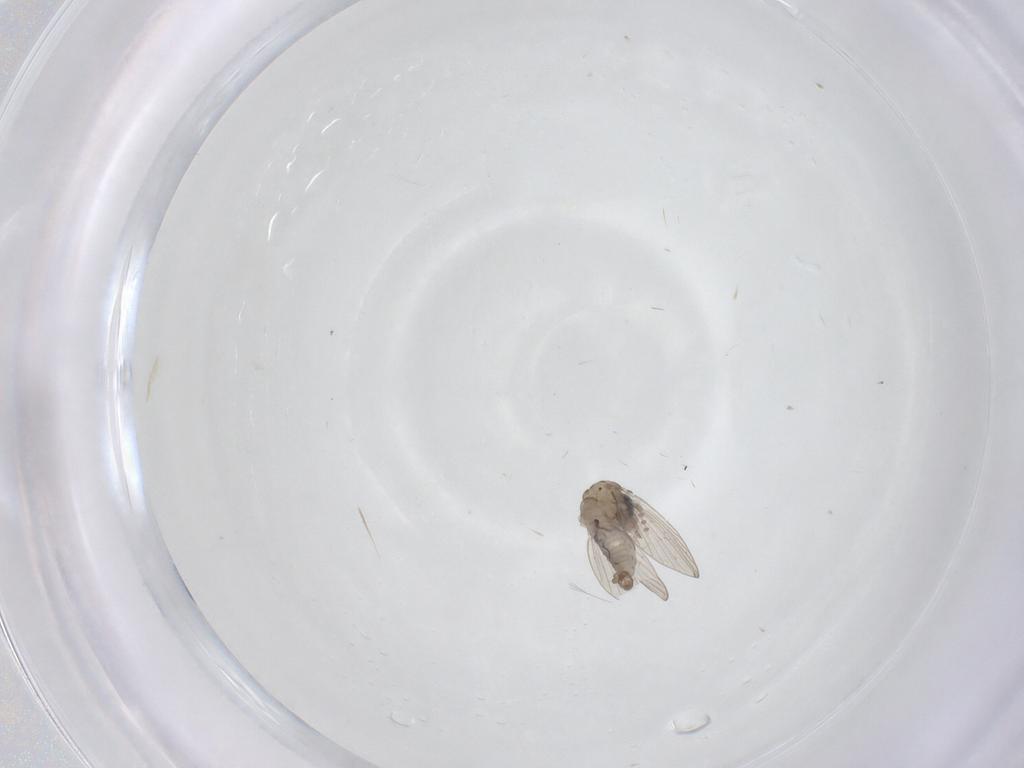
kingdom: Animalia
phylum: Arthropoda
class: Insecta
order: Diptera
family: Psychodidae
